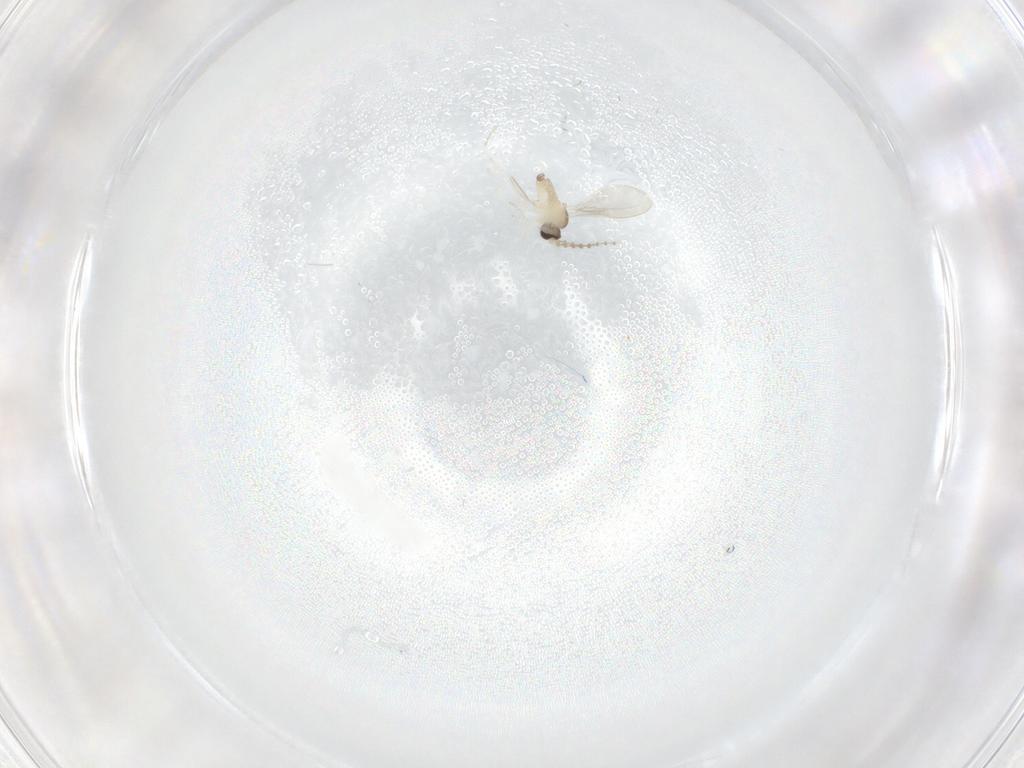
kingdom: Animalia
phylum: Arthropoda
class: Insecta
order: Diptera
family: Cecidomyiidae
